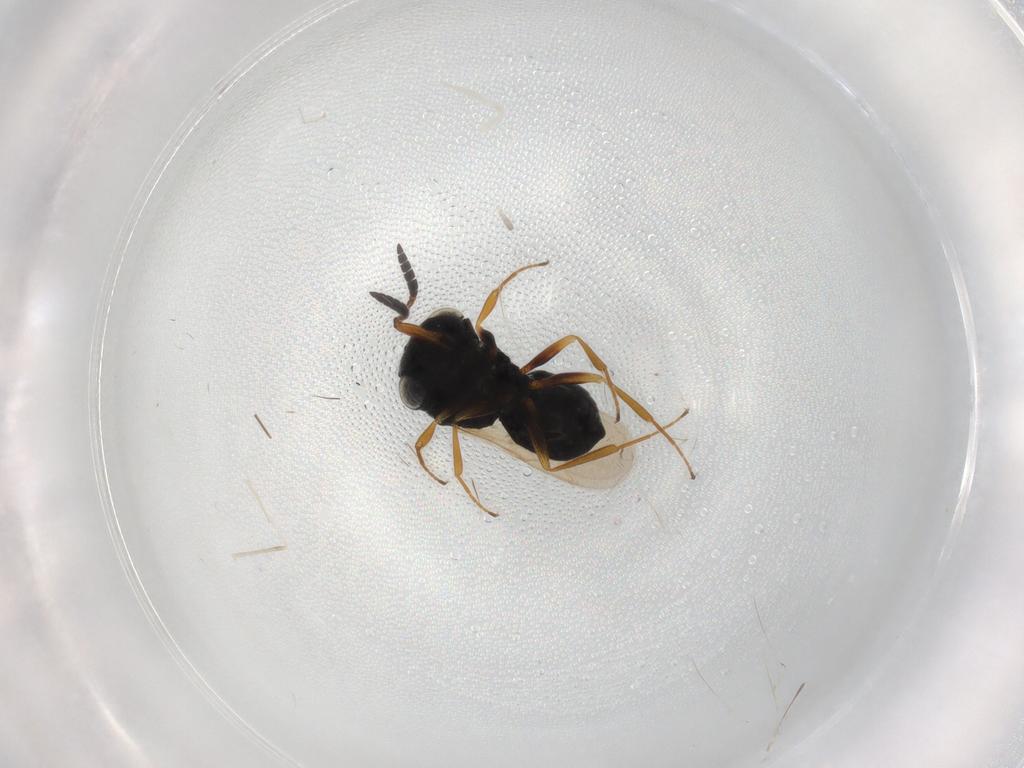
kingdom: Animalia
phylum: Arthropoda
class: Insecta
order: Hymenoptera
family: Scelionidae
